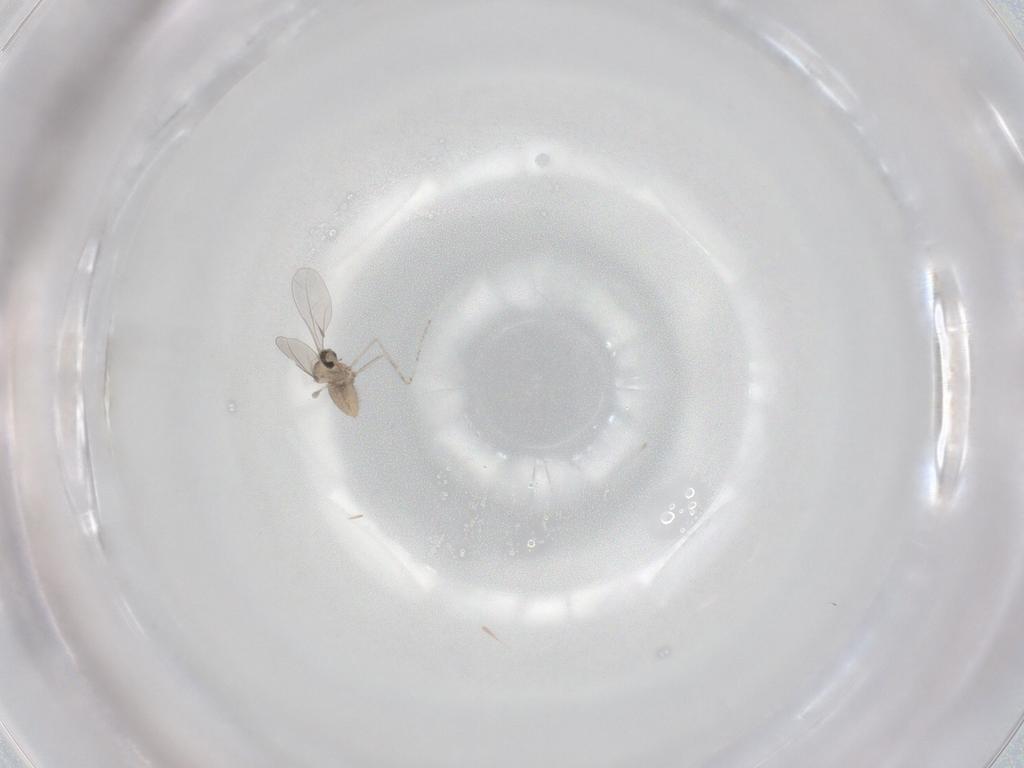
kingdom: Animalia
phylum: Arthropoda
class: Insecta
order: Diptera
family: Cecidomyiidae
